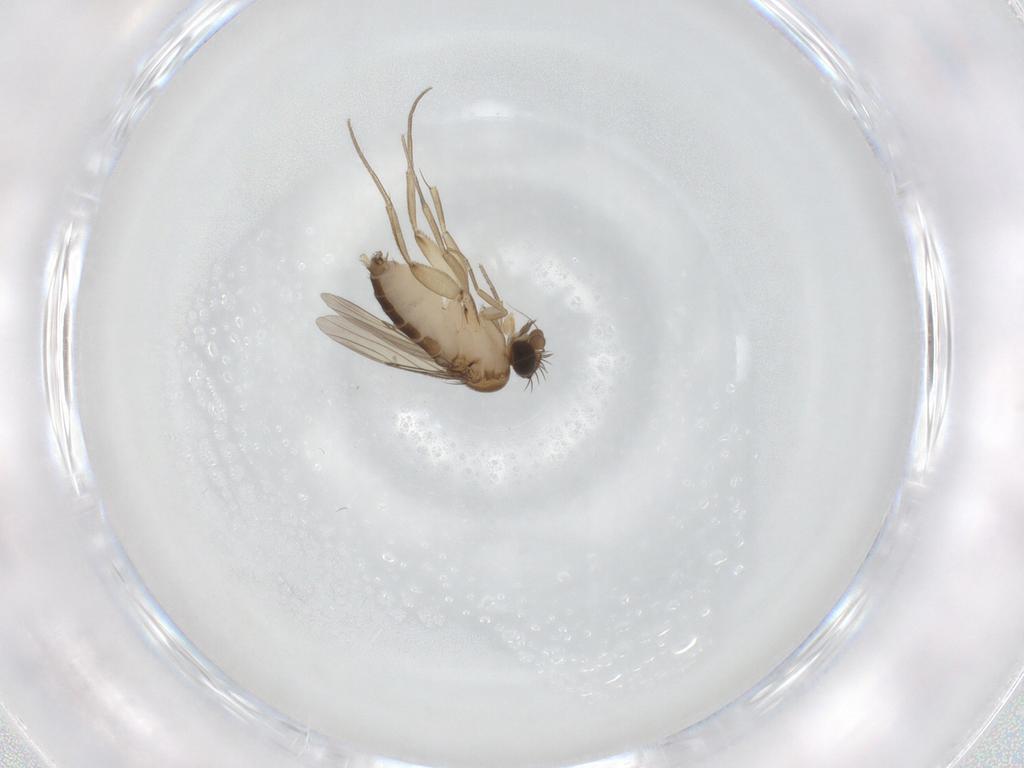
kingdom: Animalia
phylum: Arthropoda
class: Insecta
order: Diptera
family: Phoridae
